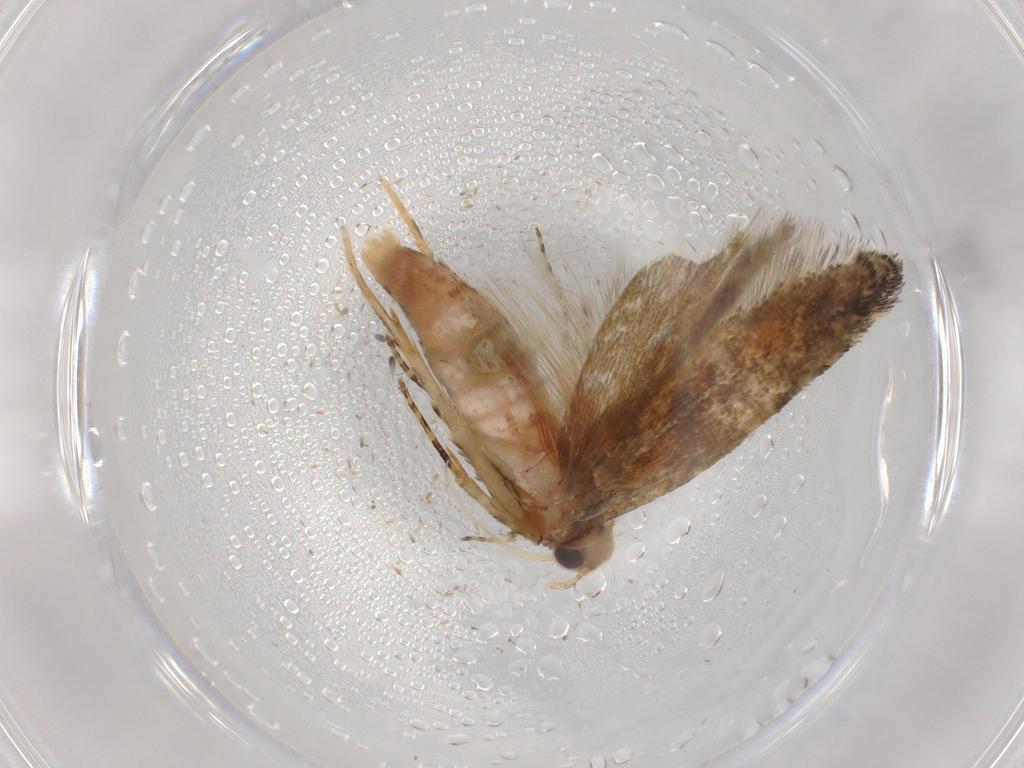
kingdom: Animalia
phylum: Arthropoda
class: Insecta
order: Lepidoptera
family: Gelechiidae
